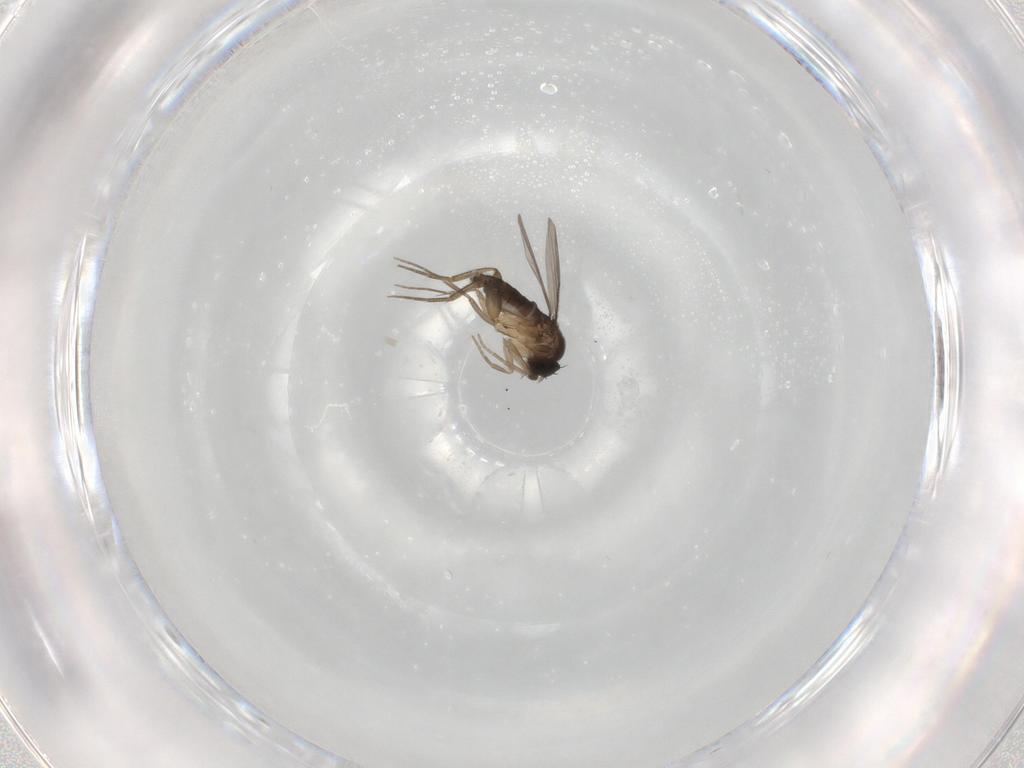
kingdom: Animalia
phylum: Arthropoda
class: Insecta
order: Diptera
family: Phoridae
